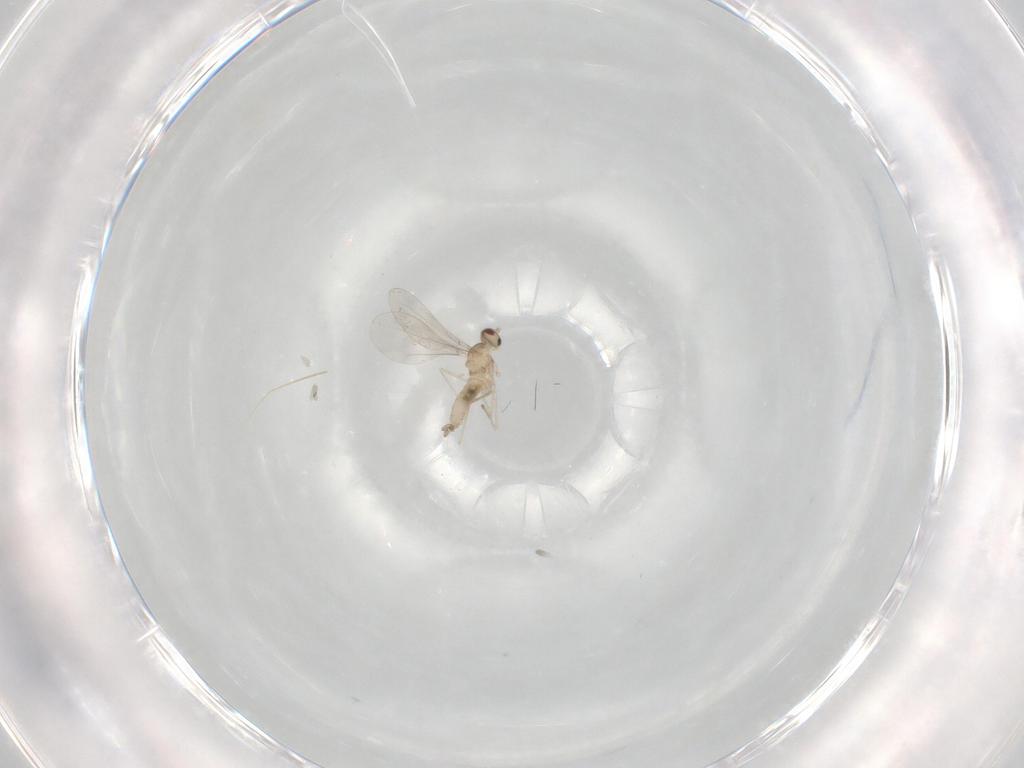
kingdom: Animalia
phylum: Arthropoda
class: Insecta
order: Diptera
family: Cecidomyiidae
